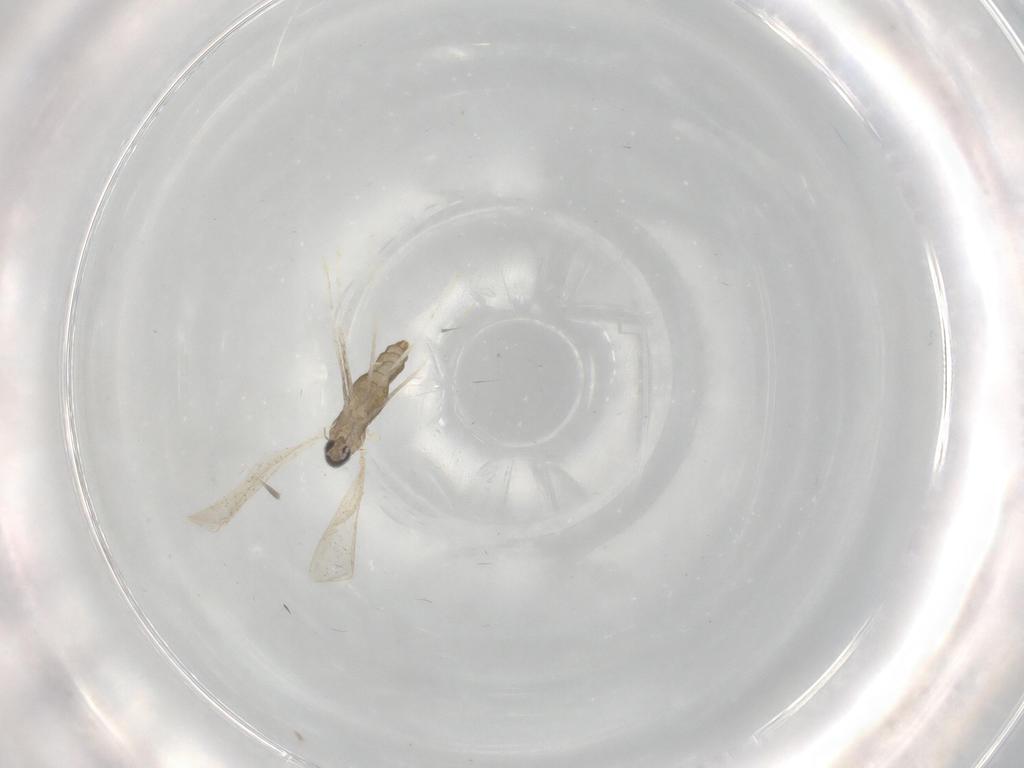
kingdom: Animalia
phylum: Arthropoda
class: Insecta
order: Diptera
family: Cecidomyiidae
